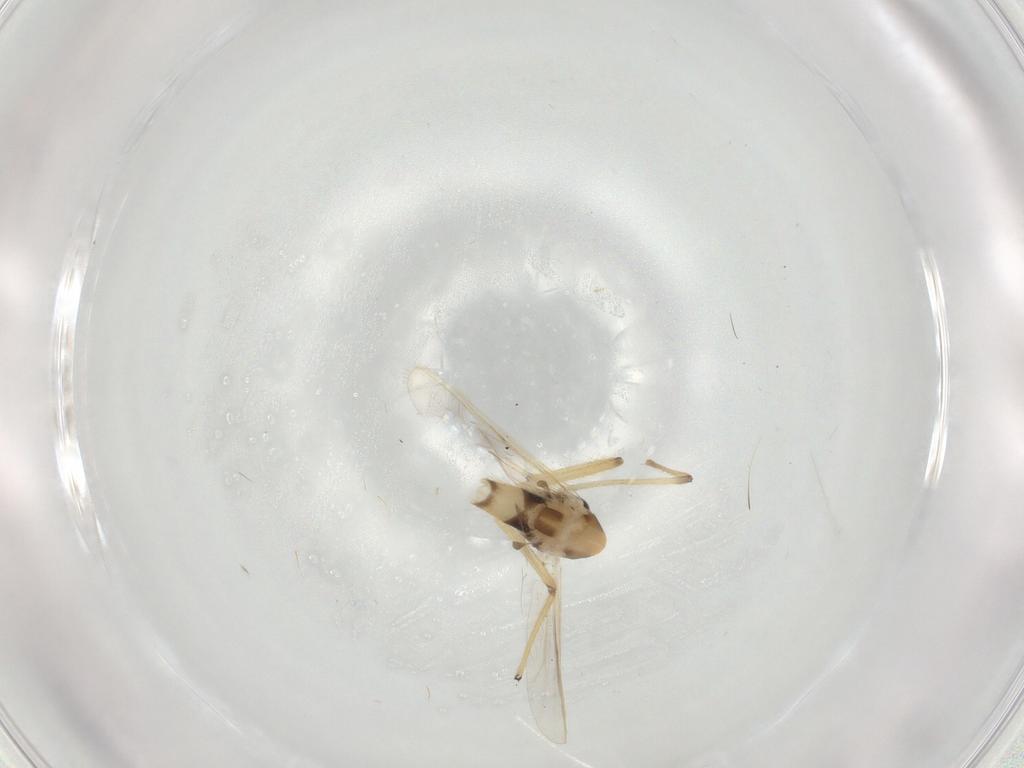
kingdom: Animalia
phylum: Arthropoda
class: Insecta
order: Diptera
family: Chironomidae
